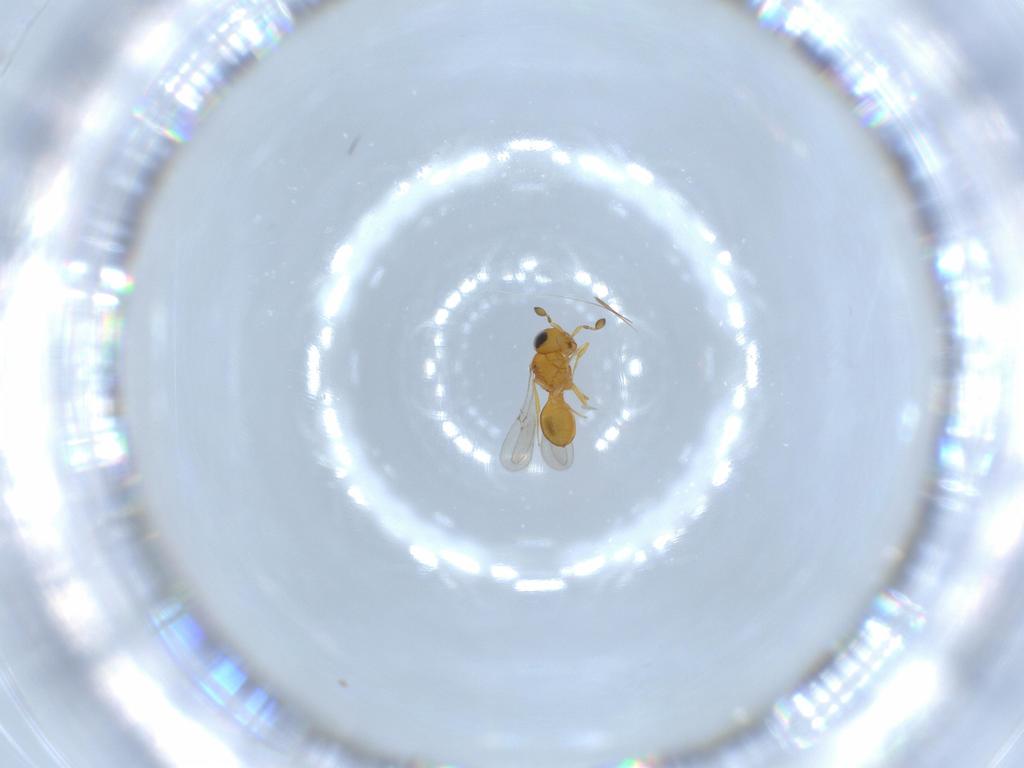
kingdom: Animalia
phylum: Arthropoda
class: Insecta
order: Hymenoptera
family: Scelionidae
